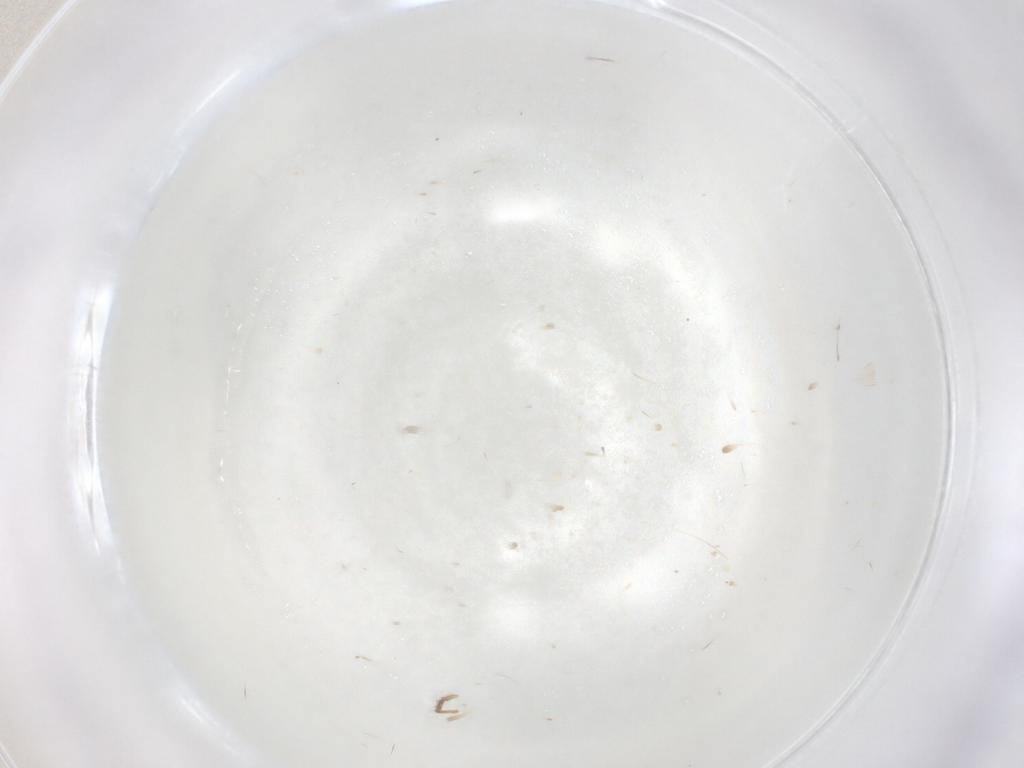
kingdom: Animalia
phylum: Arthropoda
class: Insecta
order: Diptera
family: Ceratopogonidae
